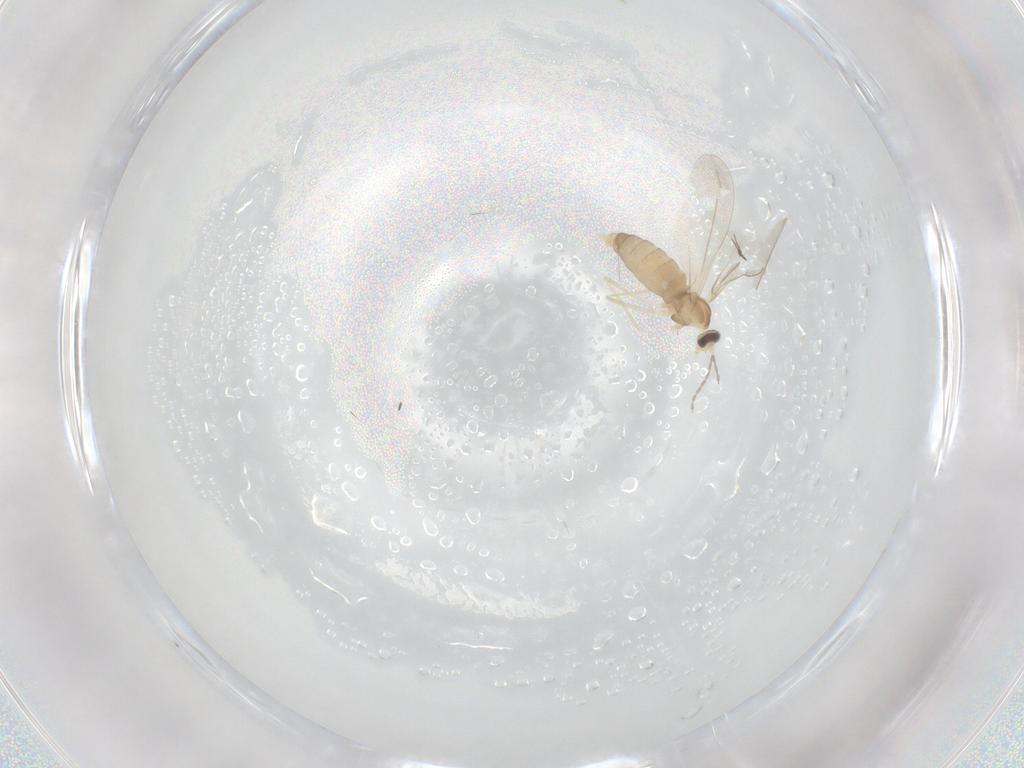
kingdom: Animalia
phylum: Arthropoda
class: Insecta
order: Diptera
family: Cecidomyiidae
